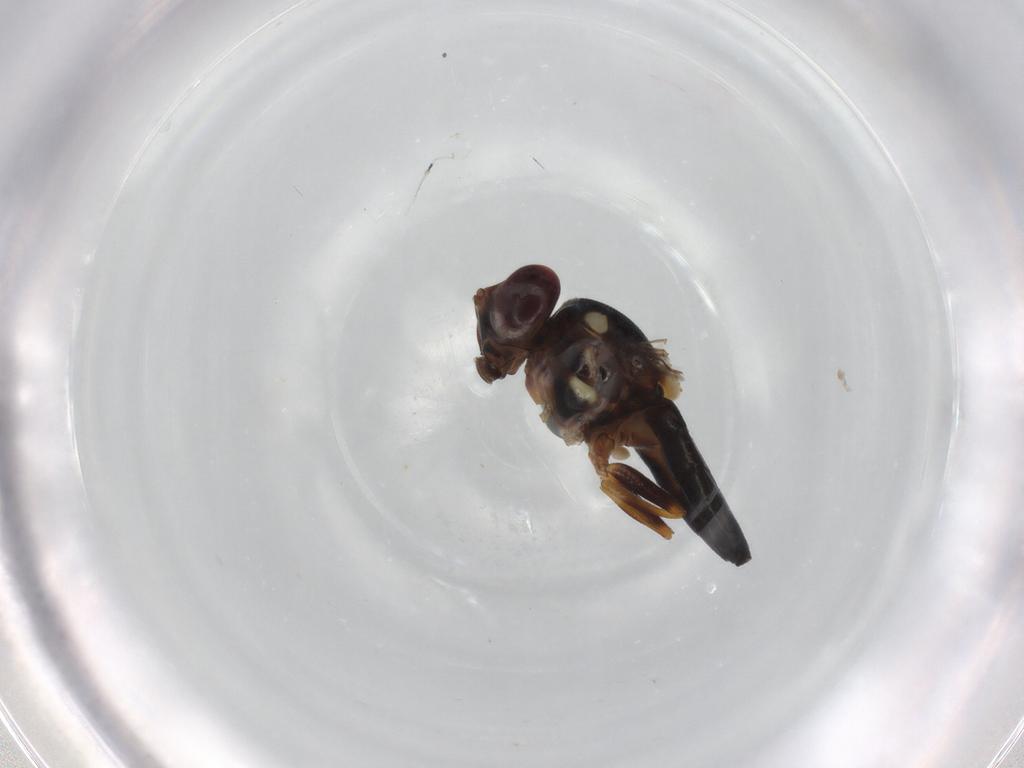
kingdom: Animalia
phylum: Arthropoda
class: Insecta
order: Diptera
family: Chloropidae
